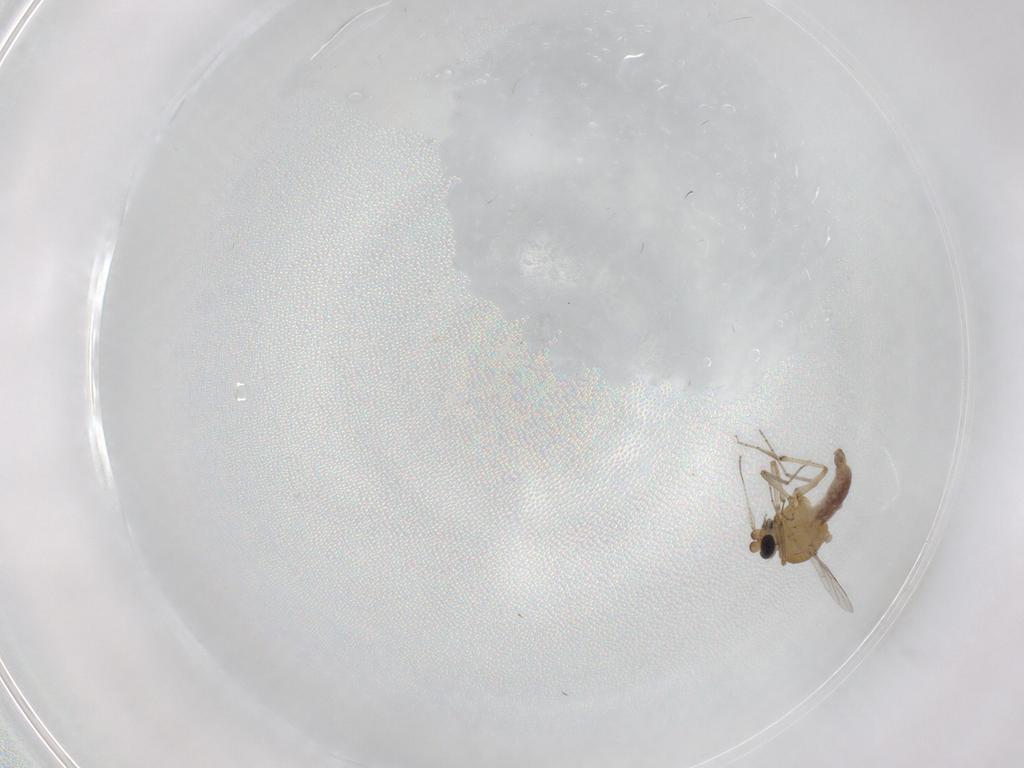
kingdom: Animalia
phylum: Arthropoda
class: Insecta
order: Diptera
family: Ceratopogonidae
